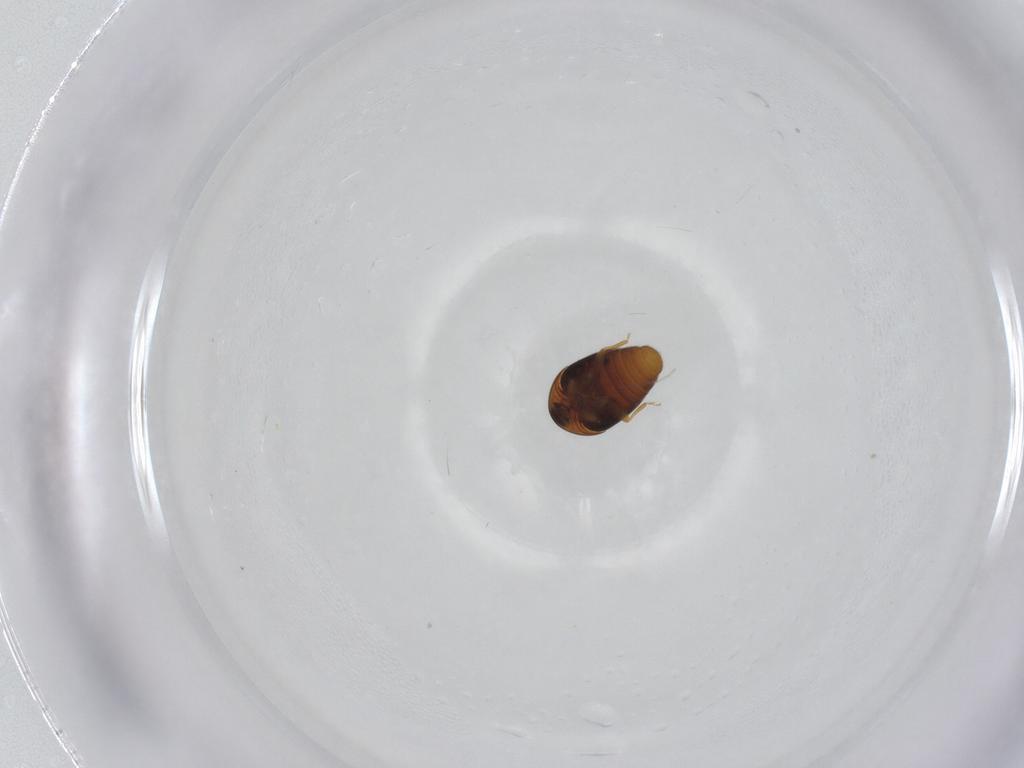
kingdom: Animalia
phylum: Arthropoda
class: Insecta
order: Coleoptera
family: Corylophidae
